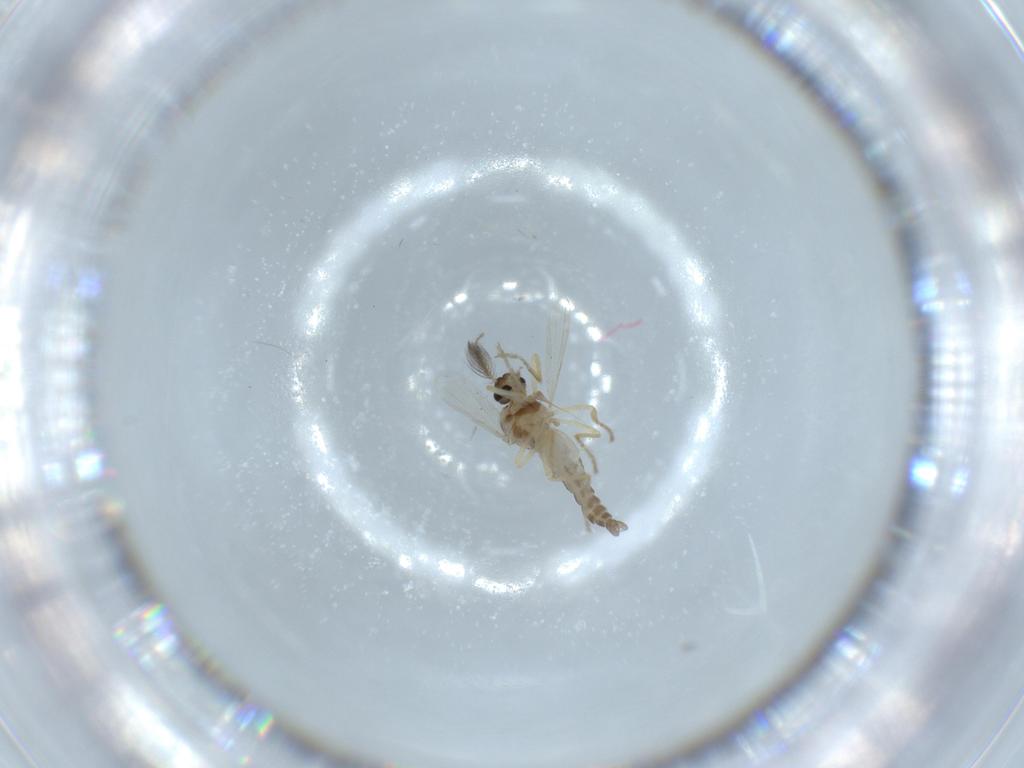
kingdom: Animalia
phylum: Arthropoda
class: Insecta
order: Diptera
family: Ceratopogonidae
